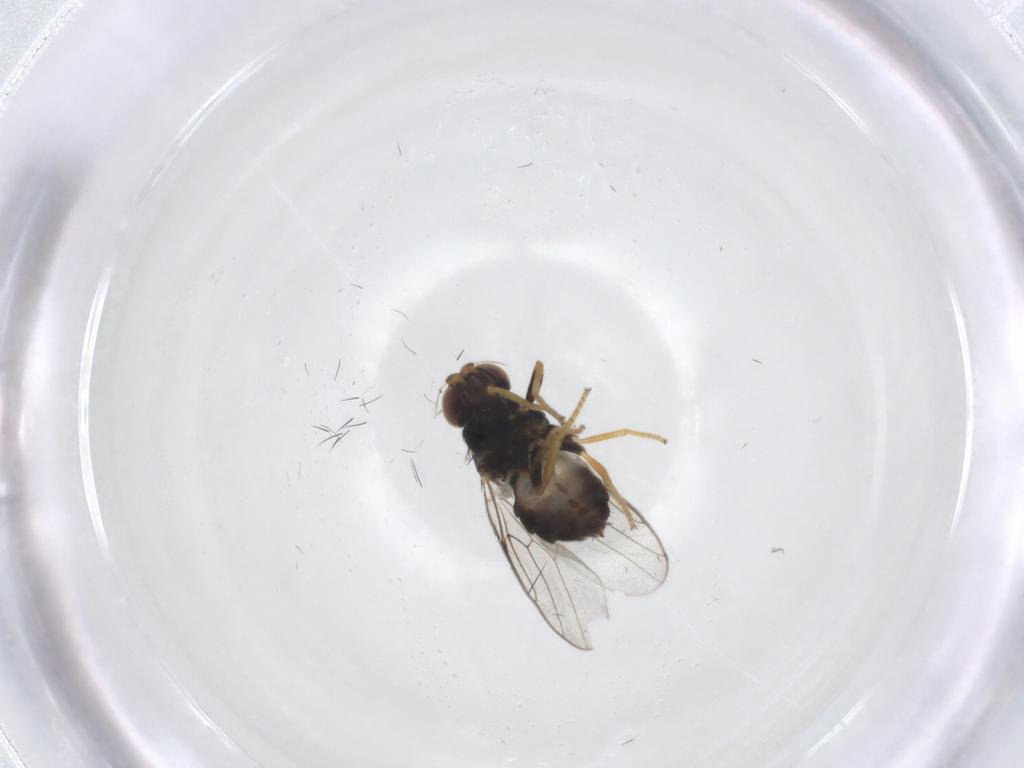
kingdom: Animalia
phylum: Arthropoda
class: Insecta
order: Diptera
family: Chloropidae
